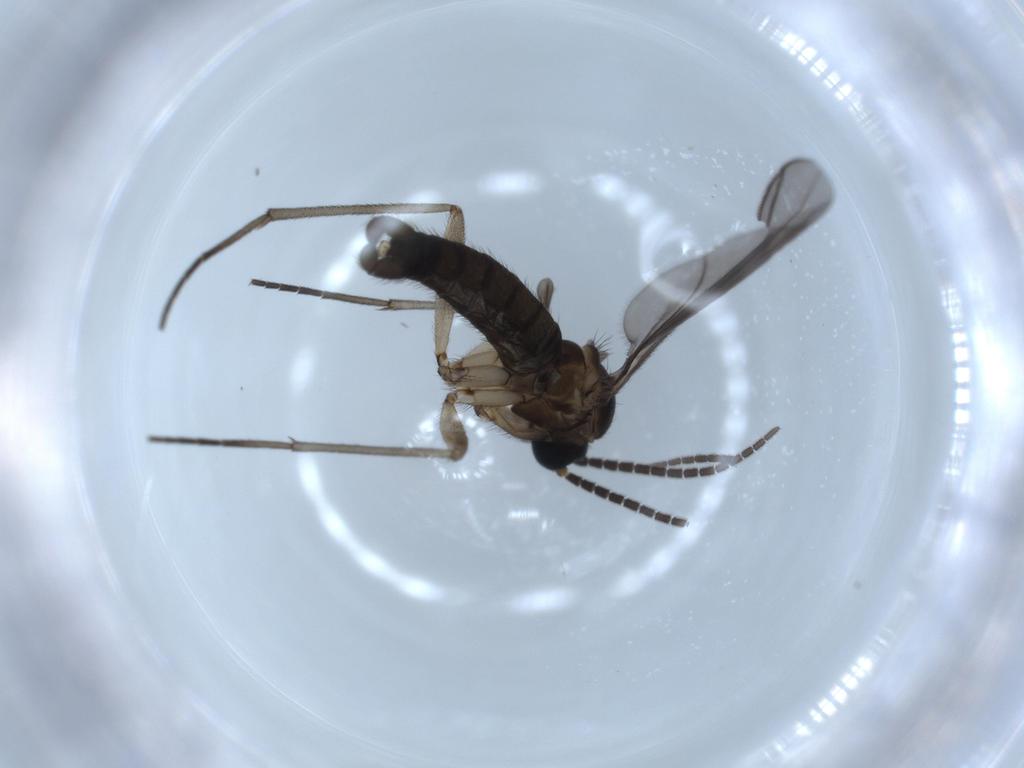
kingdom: Animalia
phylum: Arthropoda
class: Insecta
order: Diptera
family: Sciaridae
